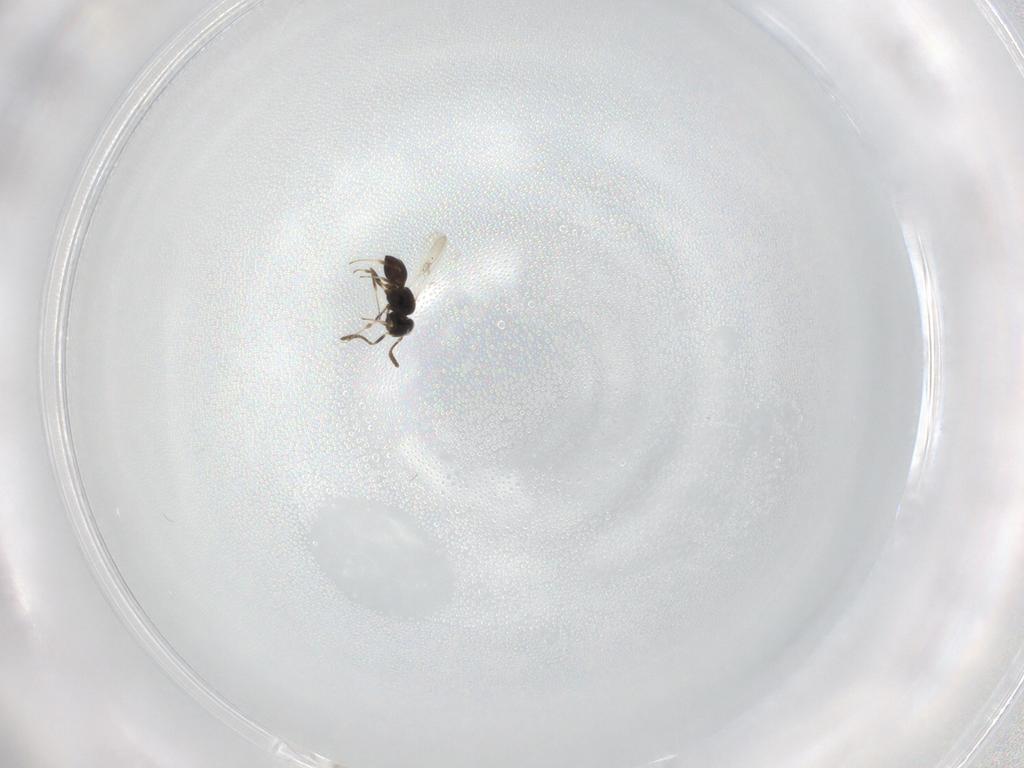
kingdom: Animalia
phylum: Arthropoda
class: Insecta
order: Hymenoptera
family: Scelionidae
